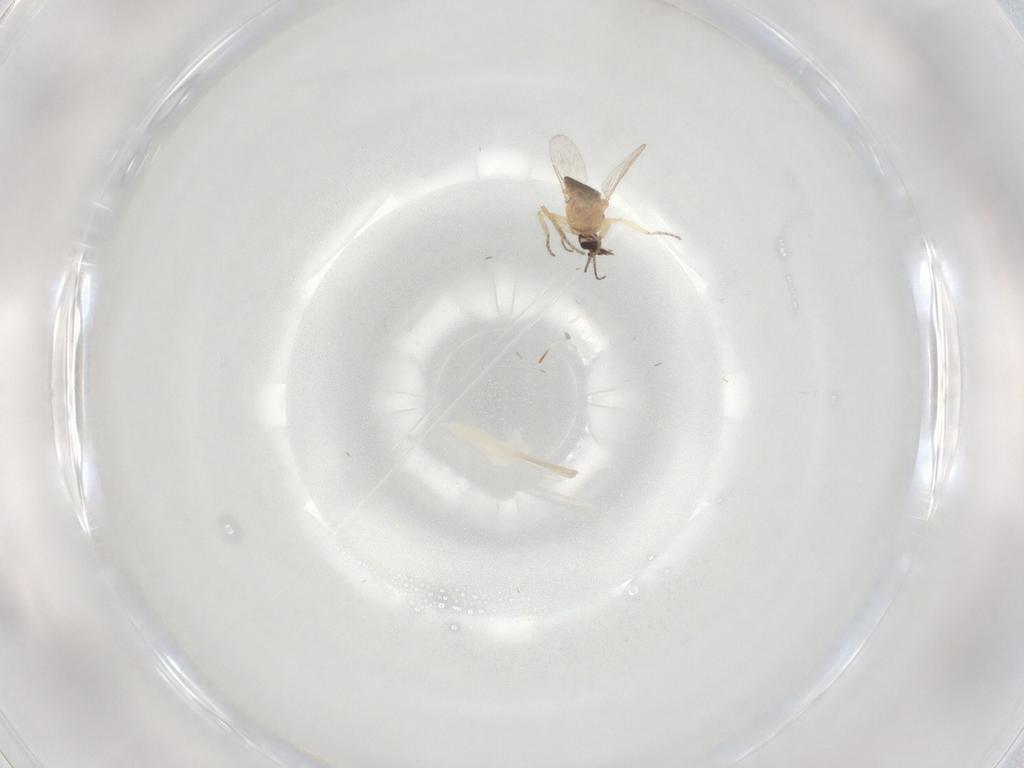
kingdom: Animalia
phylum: Arthropoda
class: Insecta
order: Diptera
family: Ceratopogonidae
